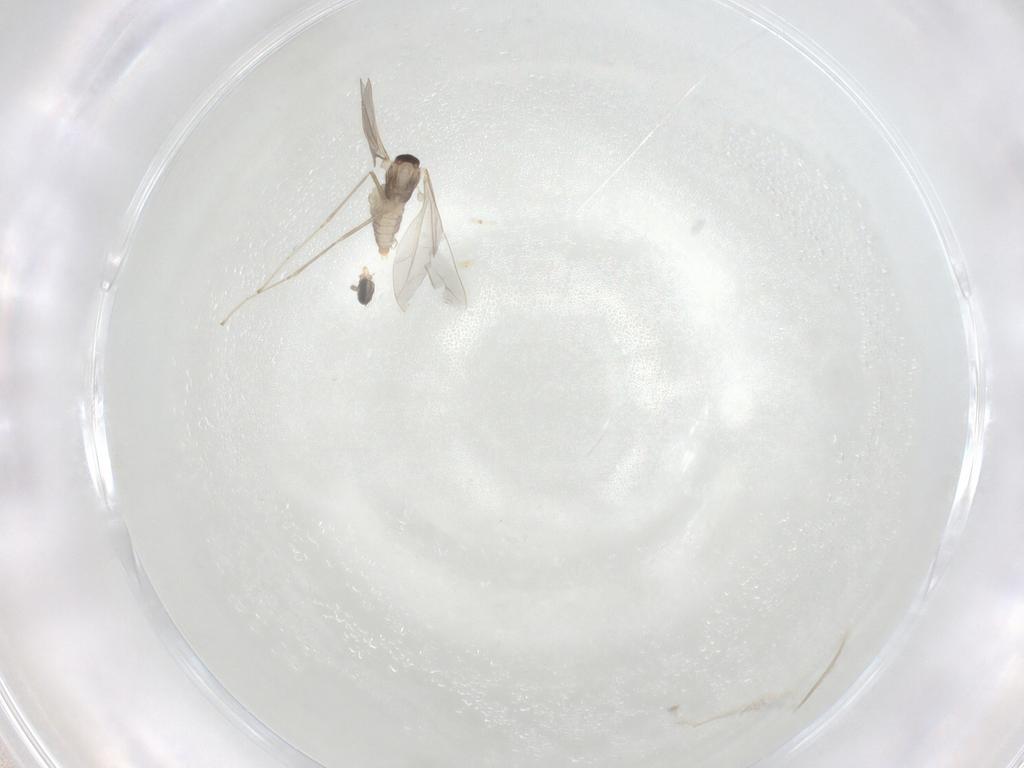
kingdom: Animalia
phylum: Arthropoda
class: Insecta
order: Diptera
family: Cecidomyiidae
